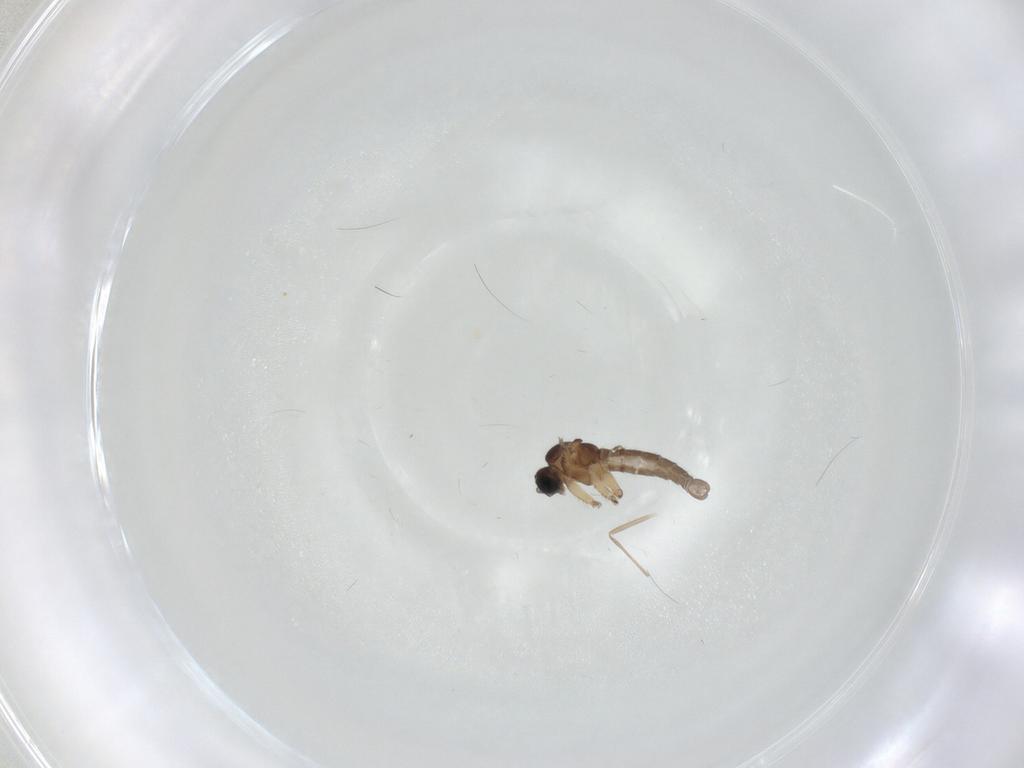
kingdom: Animalia
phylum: Arthropoda
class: Insecta
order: Diptera
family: Sciaridae
